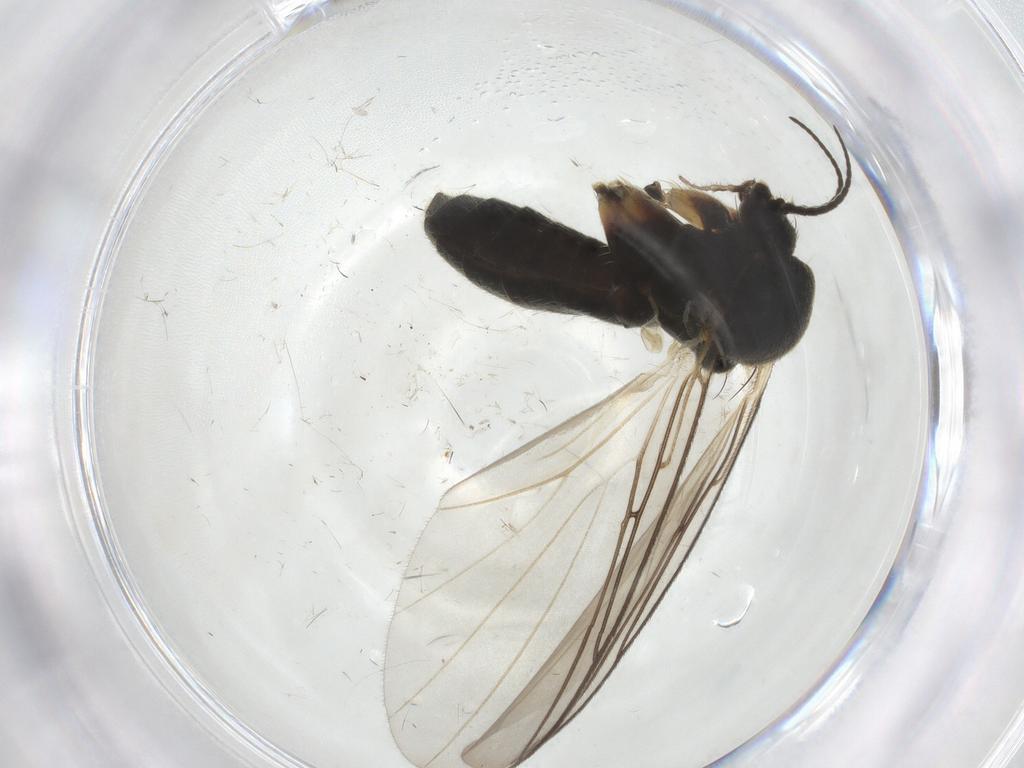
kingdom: Animalia
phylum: Arthropoda
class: Insecta
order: Diptera
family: Mycetophilidae
